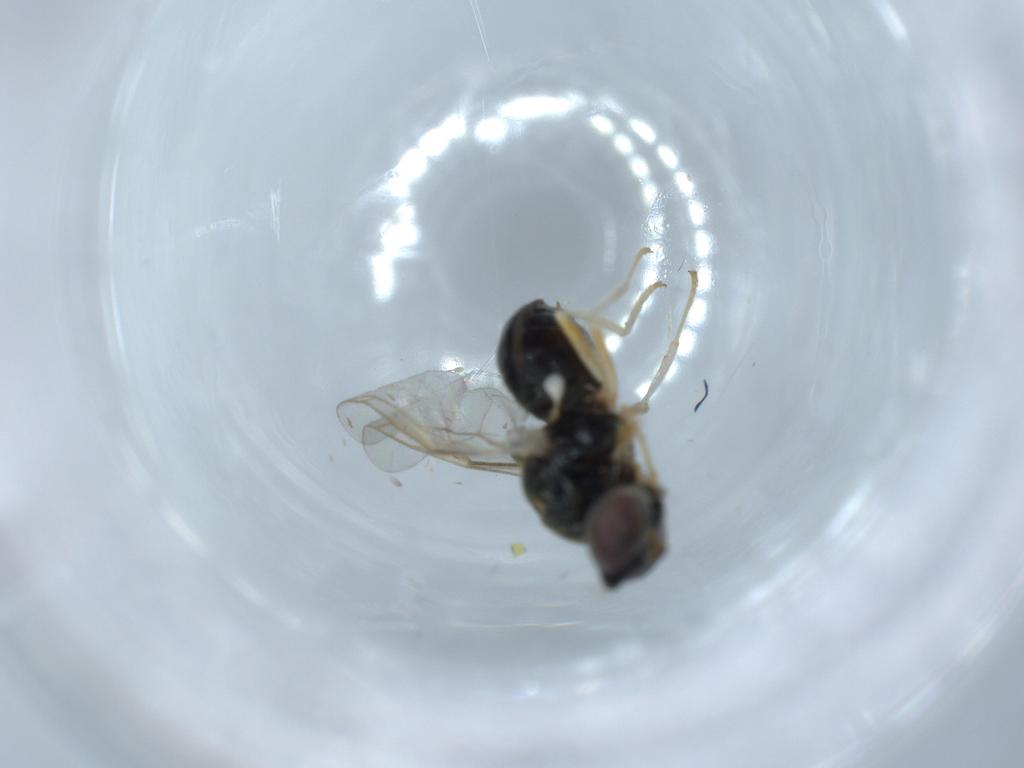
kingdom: Animalia
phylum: Arthropoda
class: Insecta
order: Diptera
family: Stratiomyidae
